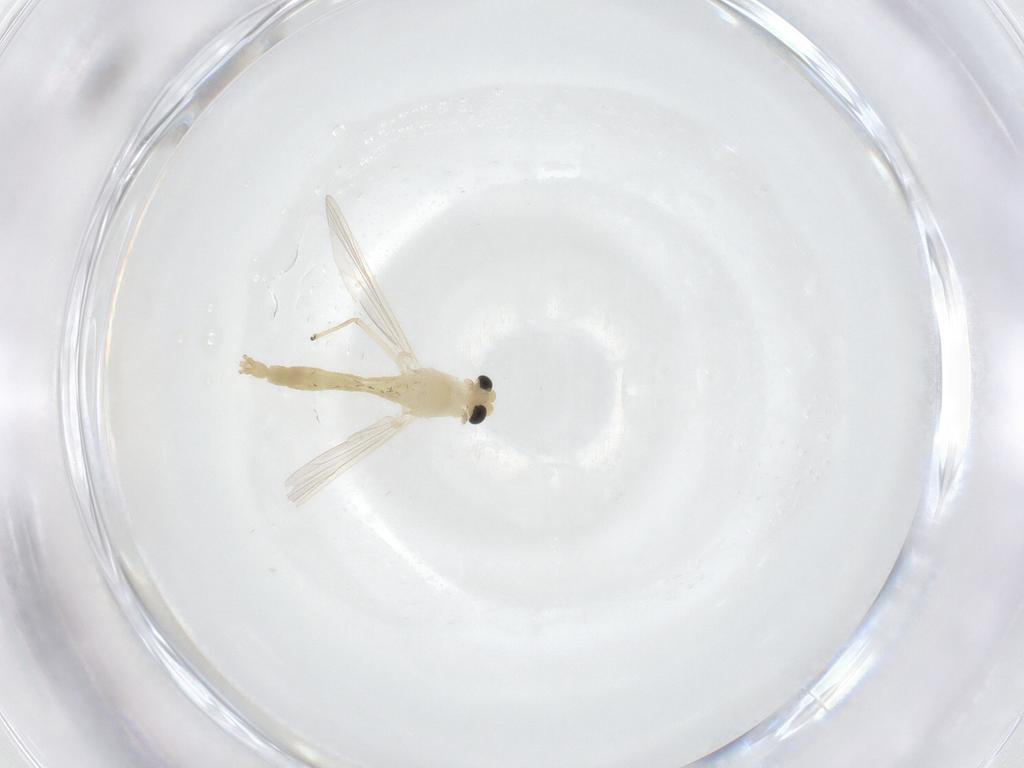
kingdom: Animalia
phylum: Arthropoda
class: Insecta
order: Diptera
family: Chironomidae
